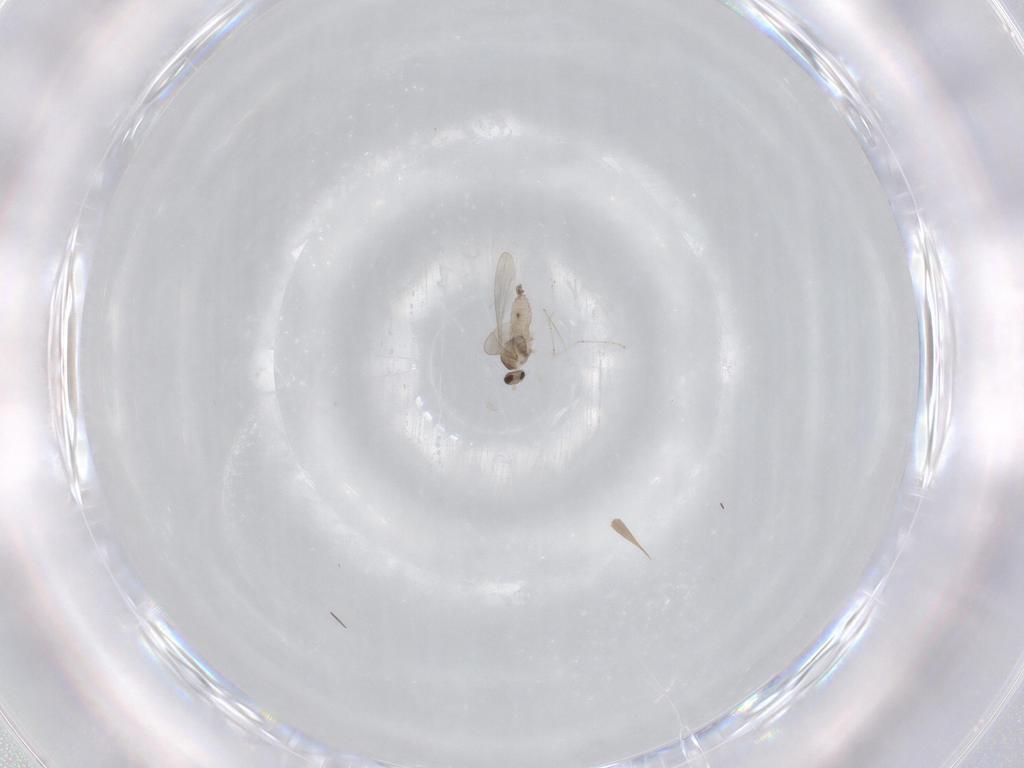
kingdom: Animalia
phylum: Arthropoda
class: Insecta
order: Diptera
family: Cecidomyiidae
